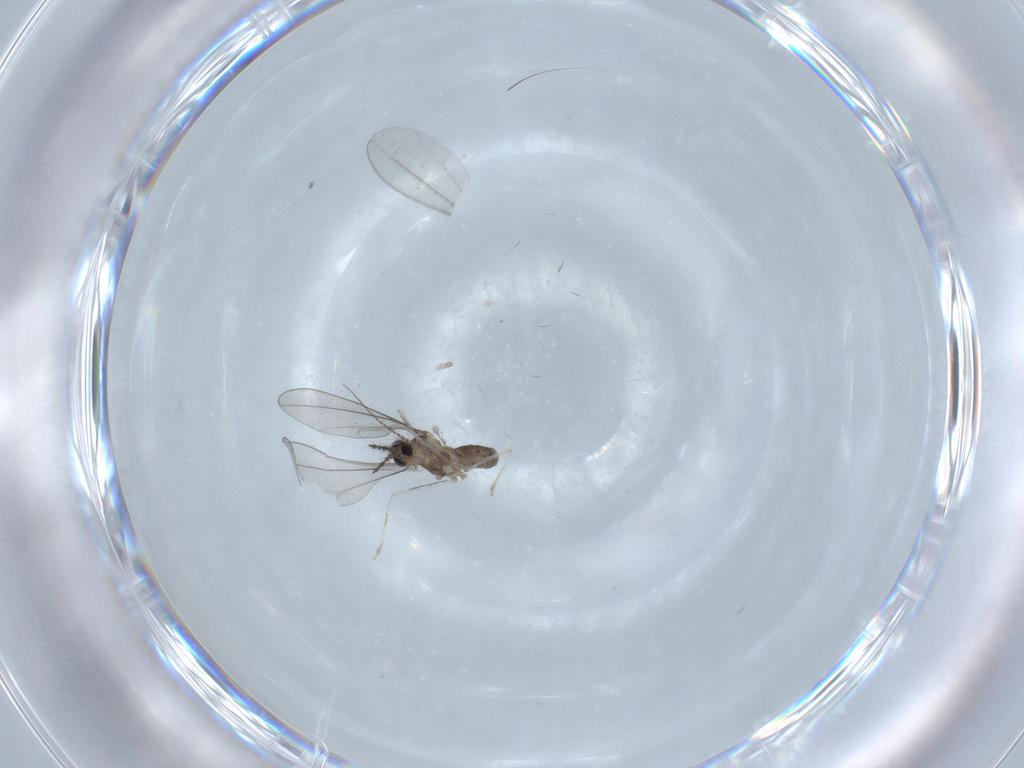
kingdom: Animalia
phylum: Arthropoda
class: Insecta
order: Diptera
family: Chironomidae
